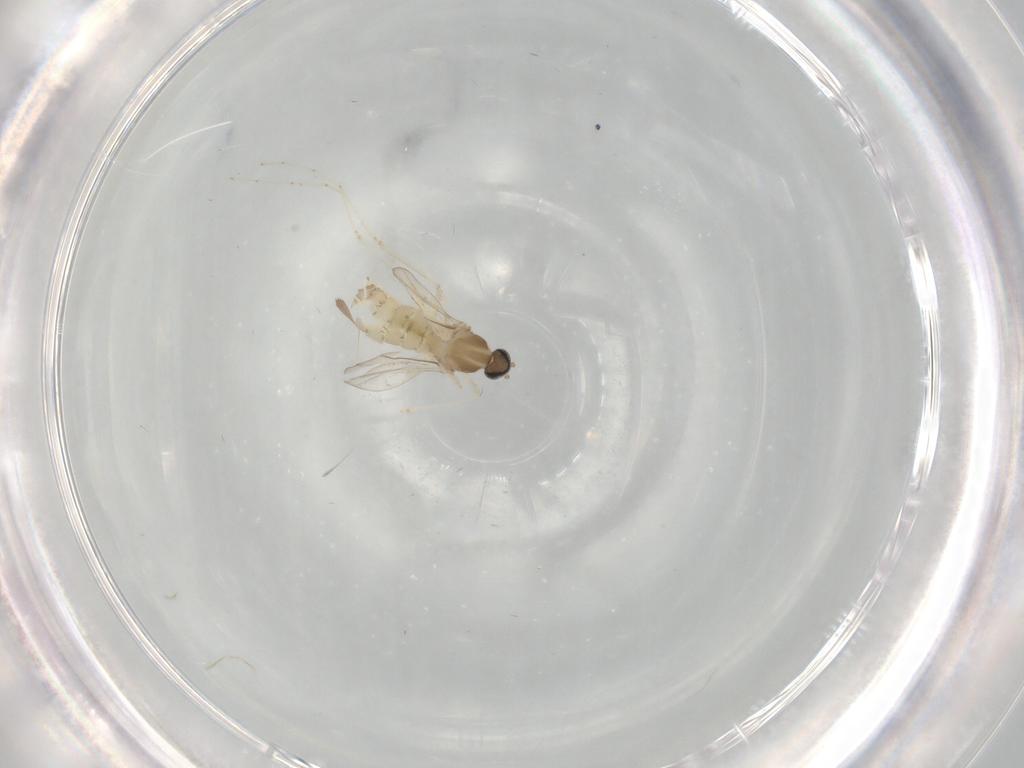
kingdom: Animalia
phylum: Arthropoda
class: Insecta
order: Diptera
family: Cecidomyiidae
